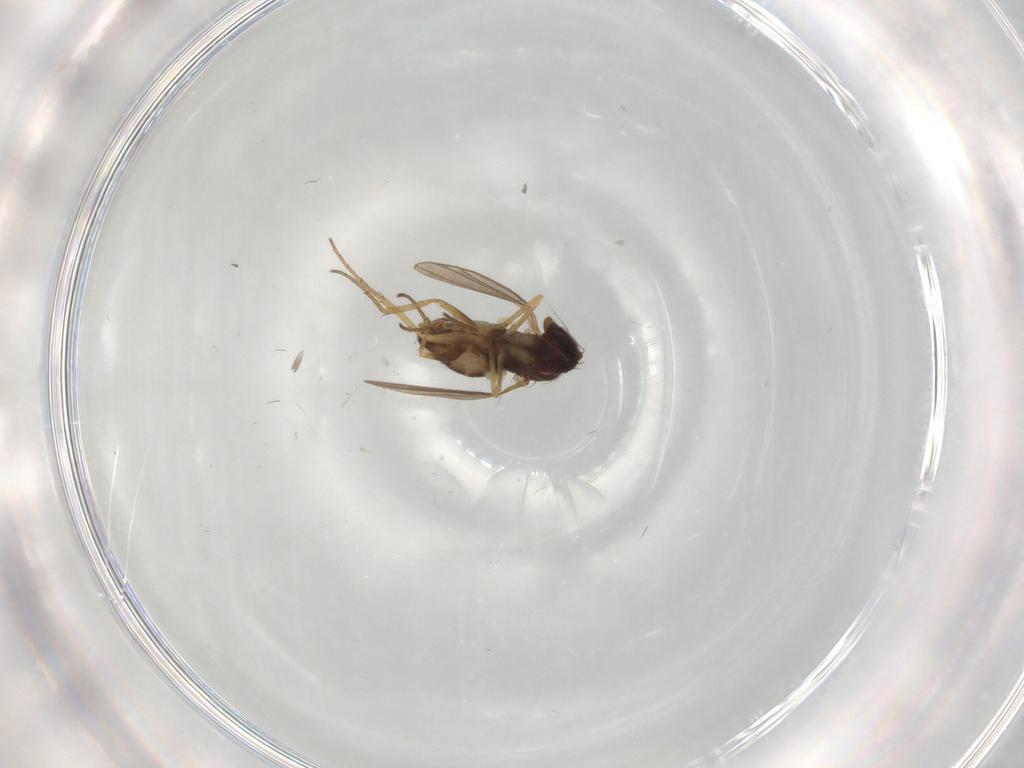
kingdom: Animalia
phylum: Arthropoda
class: Insecta
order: Diptera
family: Dolichopodidae
